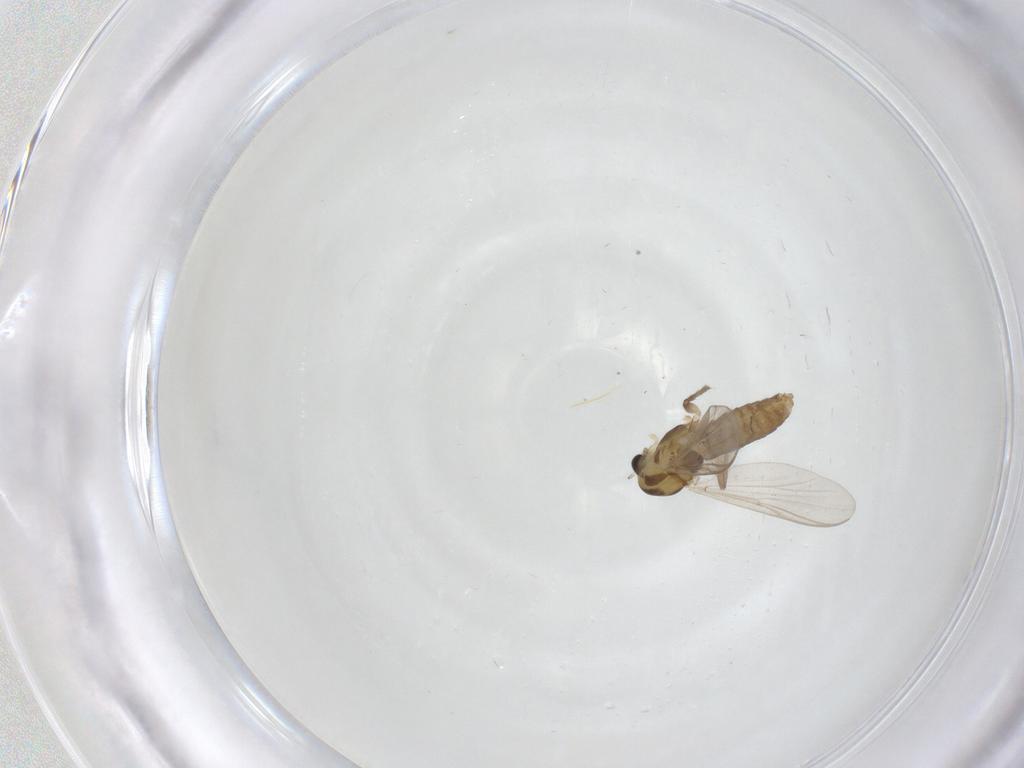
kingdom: Animalia
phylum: Arthropoda
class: Insecta
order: Diptera
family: Chironomidae
